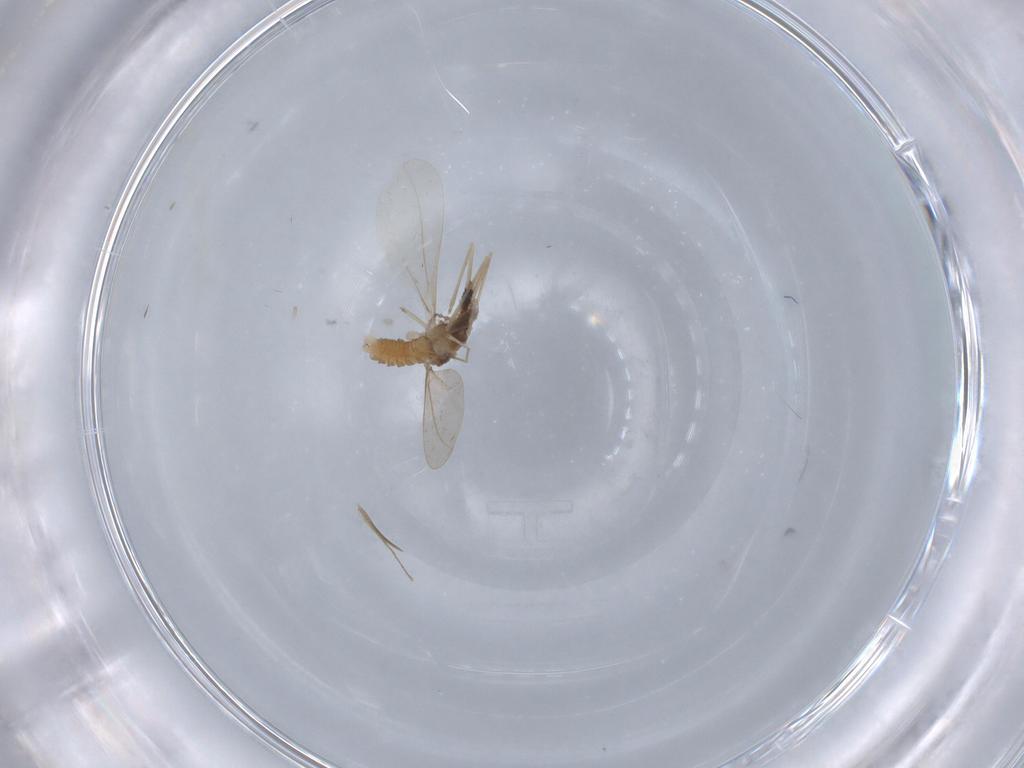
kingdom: Animalia
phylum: Arthropoda
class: Insecta
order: Diptera
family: Cecidomyiidae
